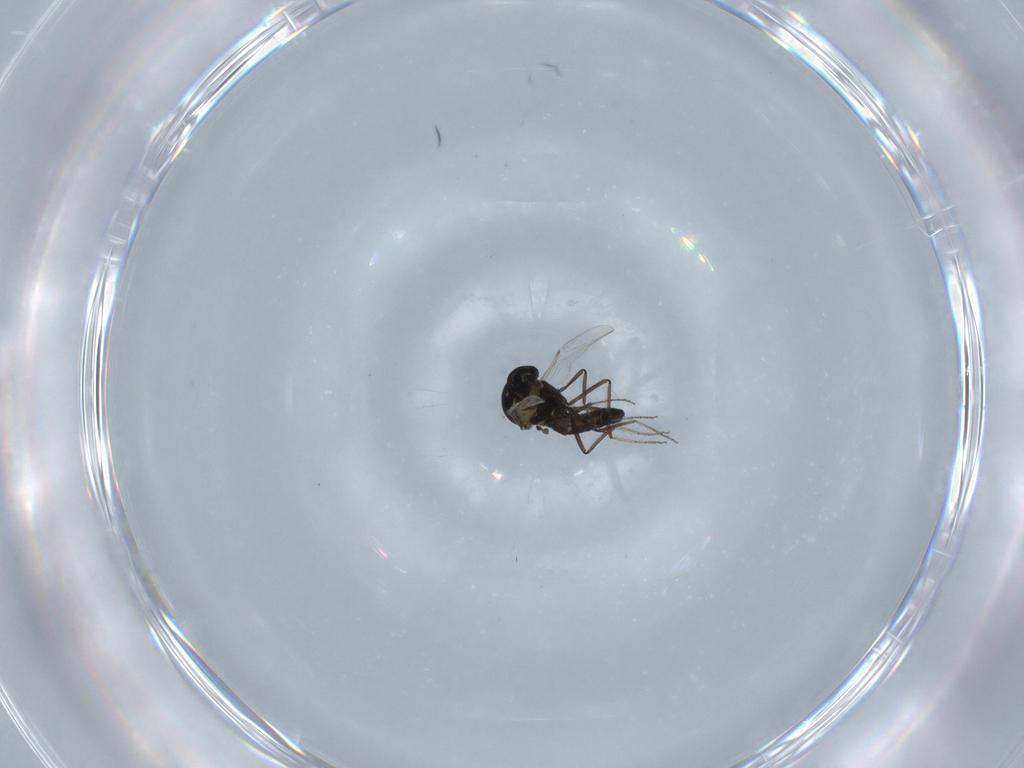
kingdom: Animalia
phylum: Arthropoda
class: Insecta
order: Diptera
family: Ceratopogonidae
